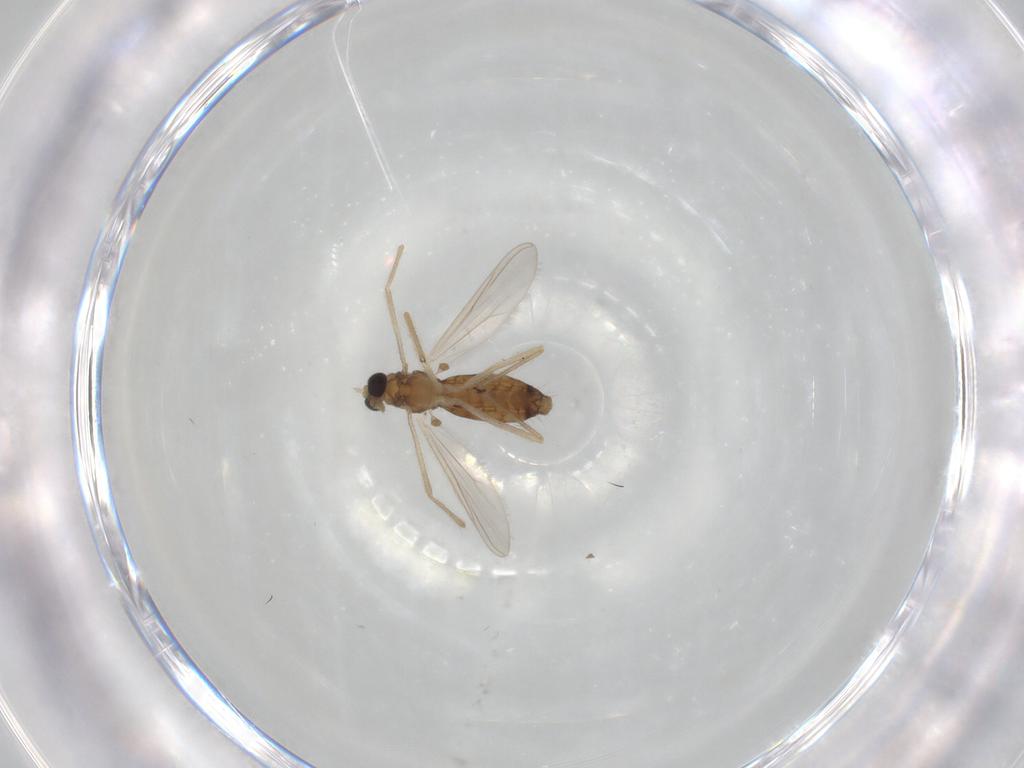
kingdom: Animalia
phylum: Arthropoda
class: Insecta
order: Diptera
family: Chironomidae
